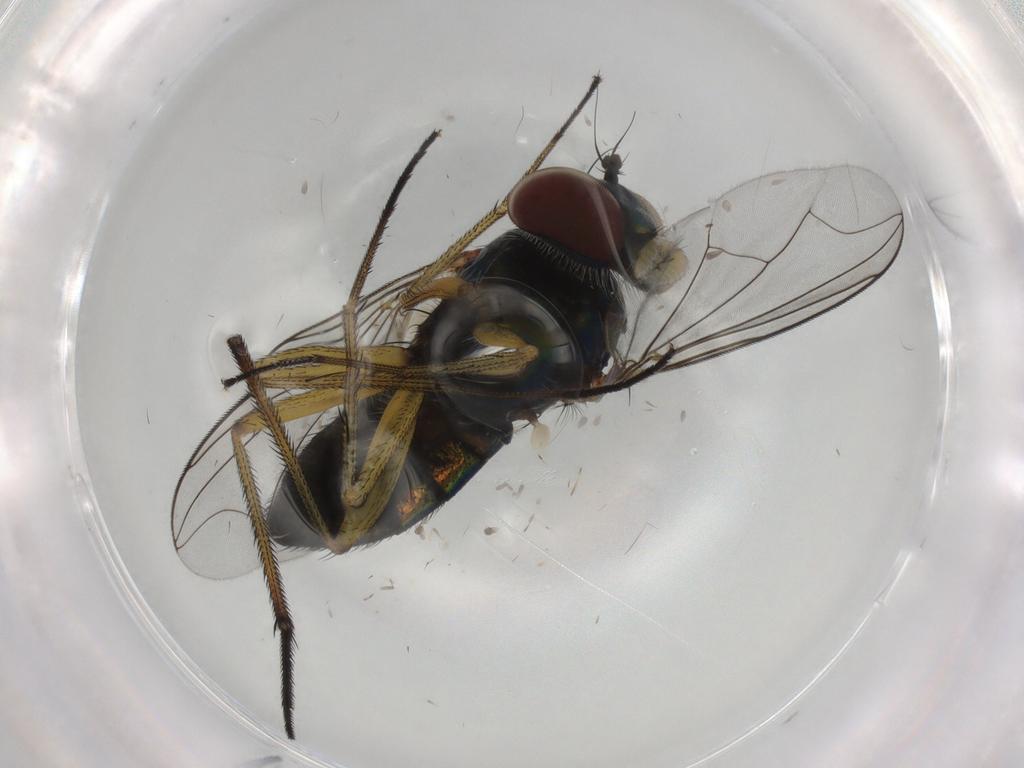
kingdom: Animalia
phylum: Arthropoda
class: Insecta
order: Diptera
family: Dolichopodidae
